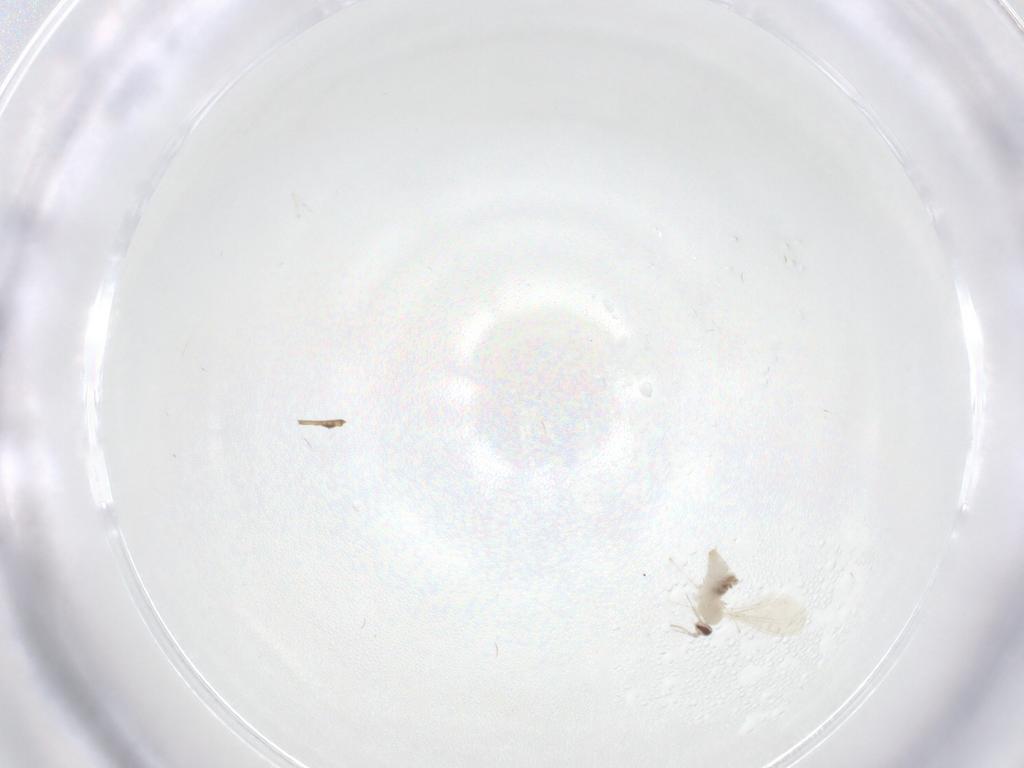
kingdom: Animalia
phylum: Arthropoda
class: Insecta
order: Diptera
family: Cecidomyiidae
